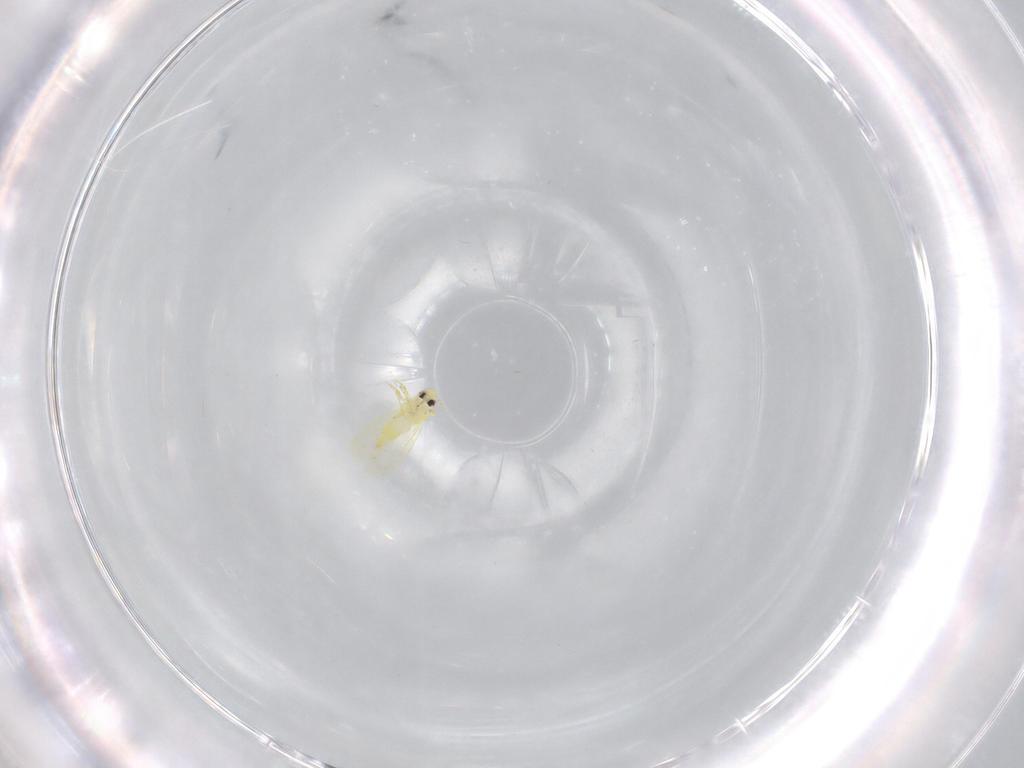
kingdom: Animalia
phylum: Arthropoda
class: Insecta
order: Hemiptera
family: Aleyrodidae
